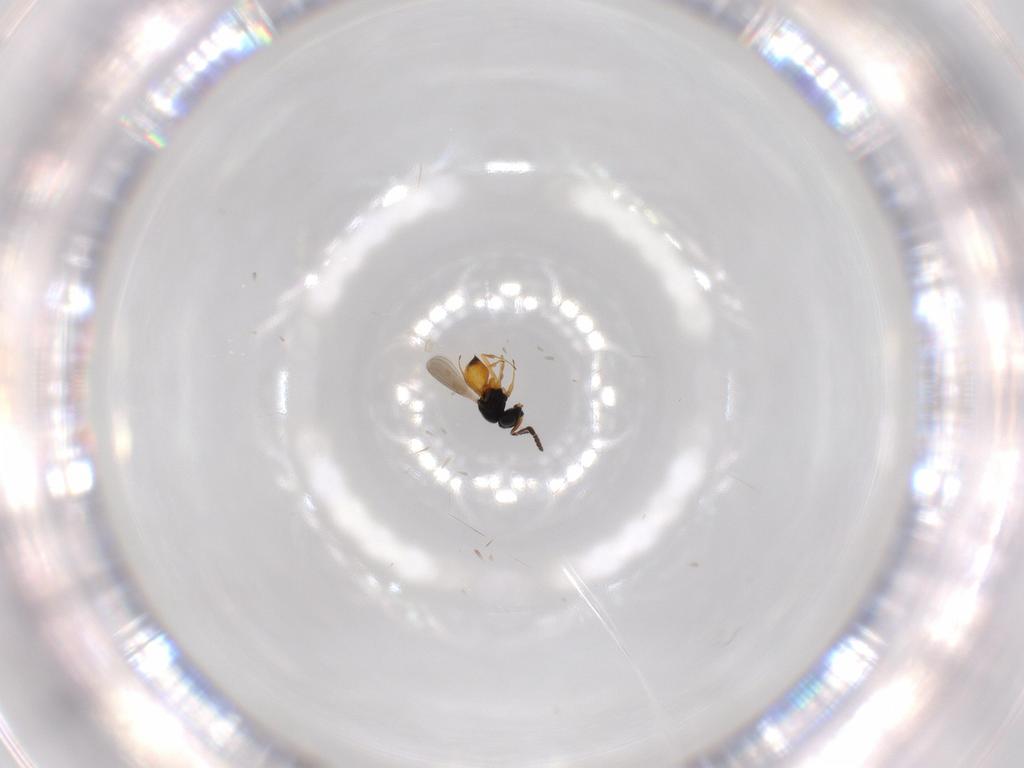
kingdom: Animalia
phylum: Arthropoda
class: Insecta
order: Hymenoptera
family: Scelionidae
